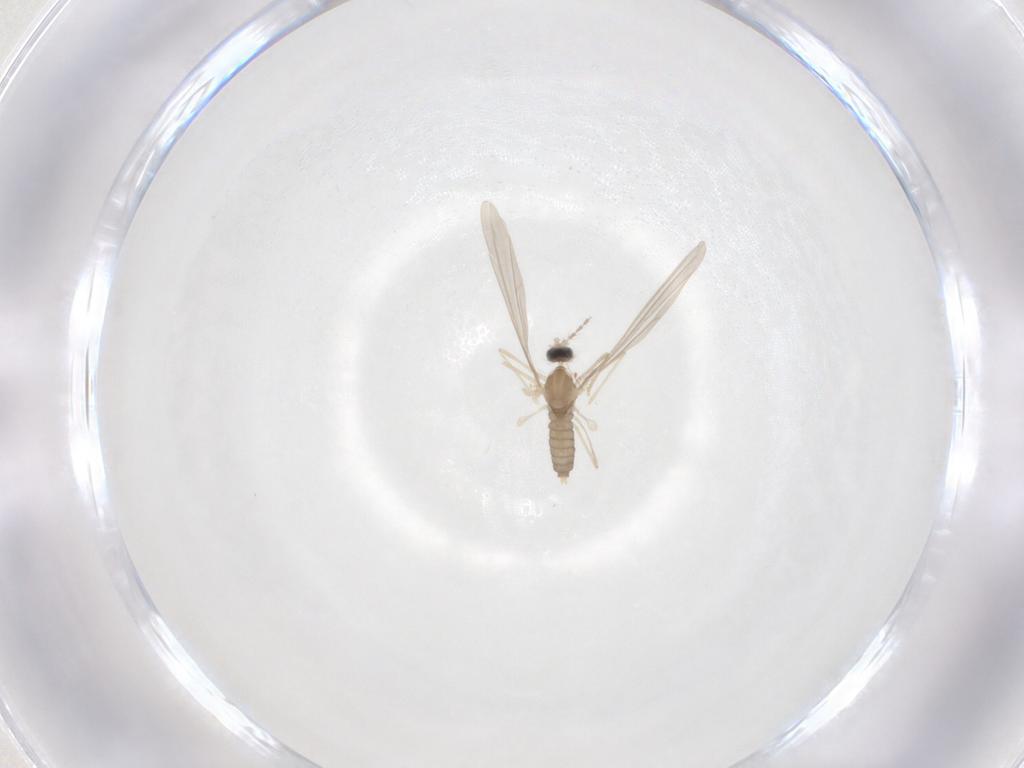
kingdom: Animalia
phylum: Arthropoda
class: Insecta
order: Diptera
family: Cecidomyiidae
